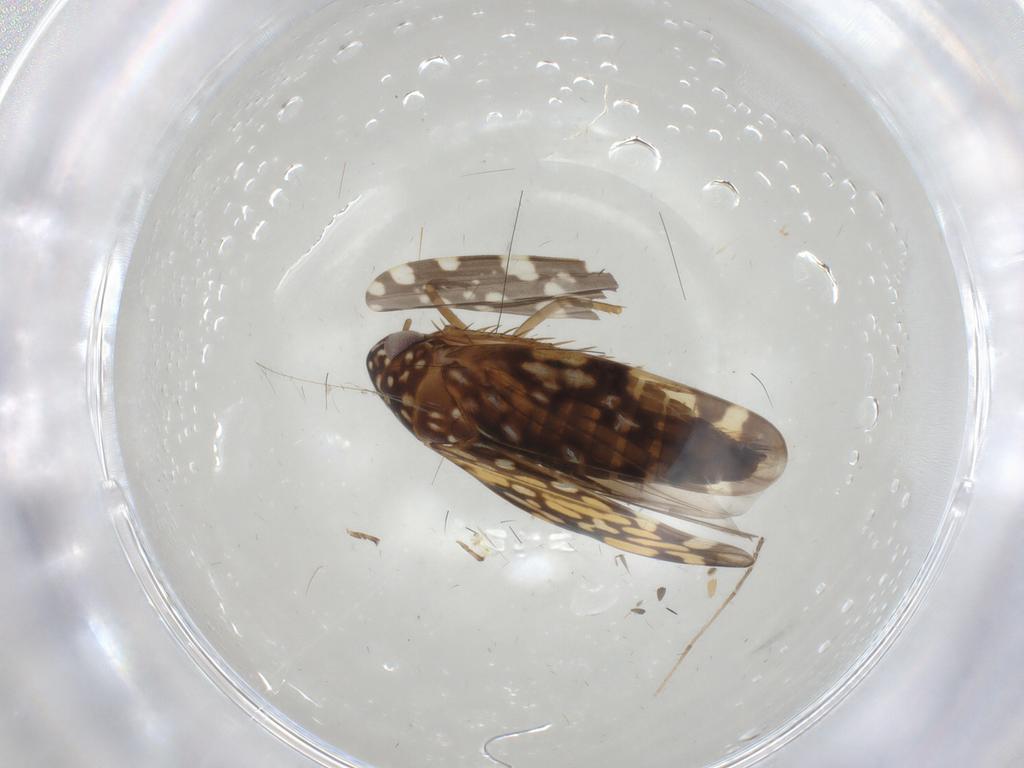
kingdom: Animalia
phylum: Arthropoda
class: Insecta
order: Hemiptera
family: Cicadellidae
